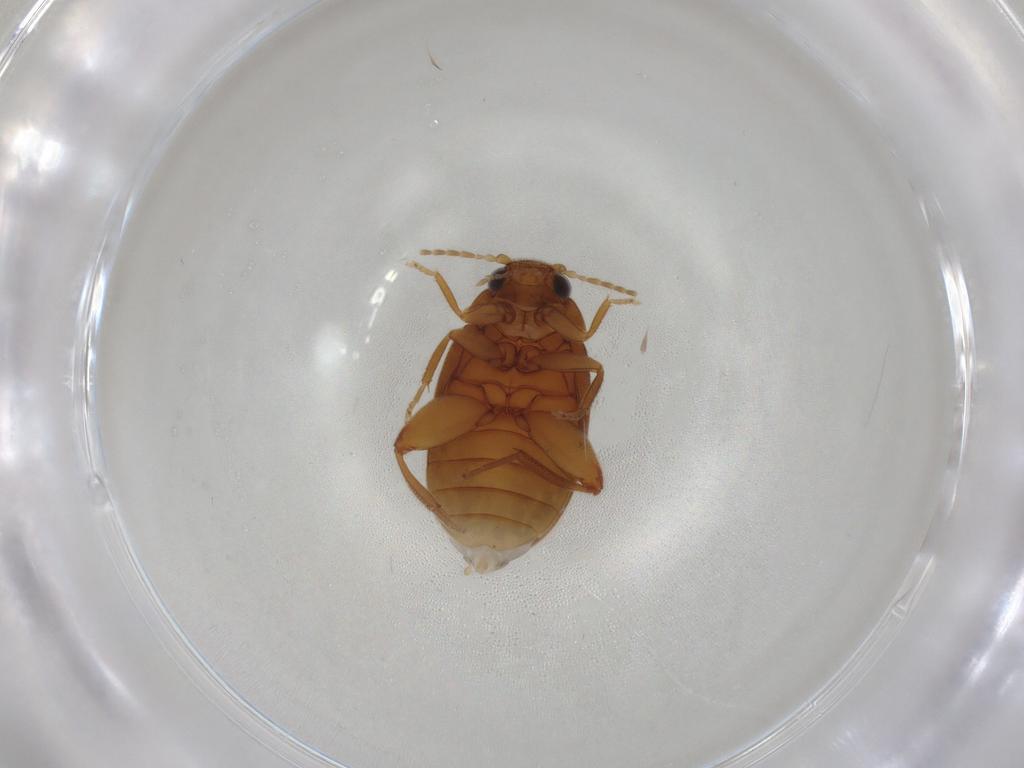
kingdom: Animalia
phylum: Arthropoda
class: Insecta
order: Coleoptera
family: Scirtidae
